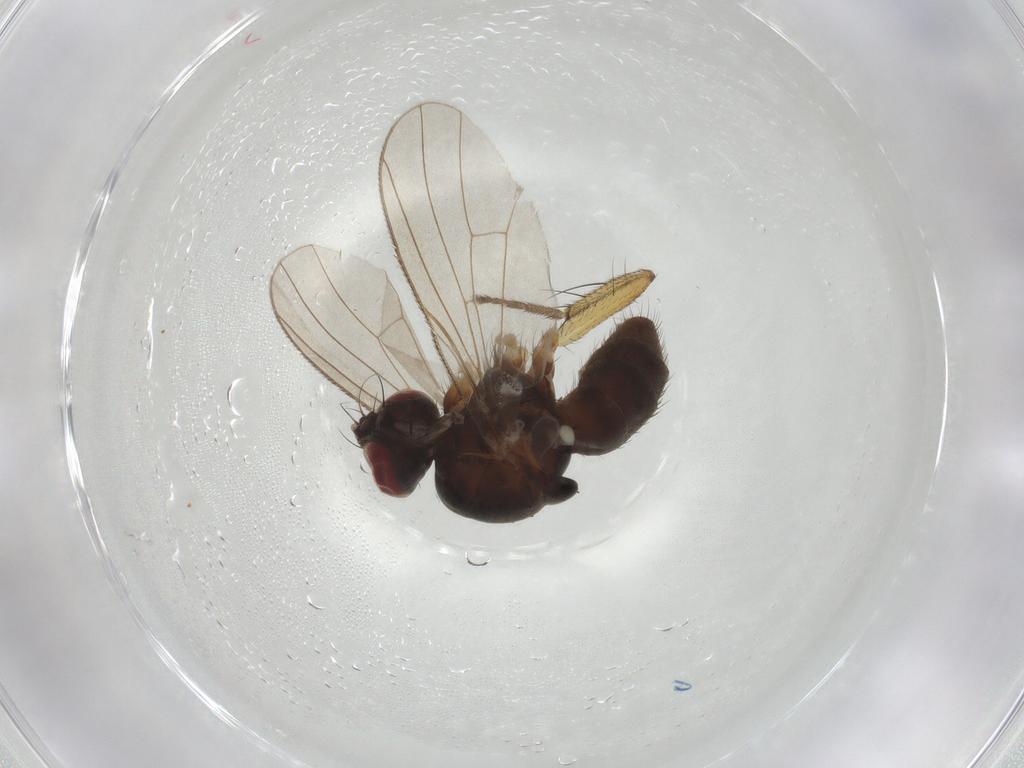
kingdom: Animalia
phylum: Arthropoda
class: Insecta
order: Diptera
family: Muscidae
